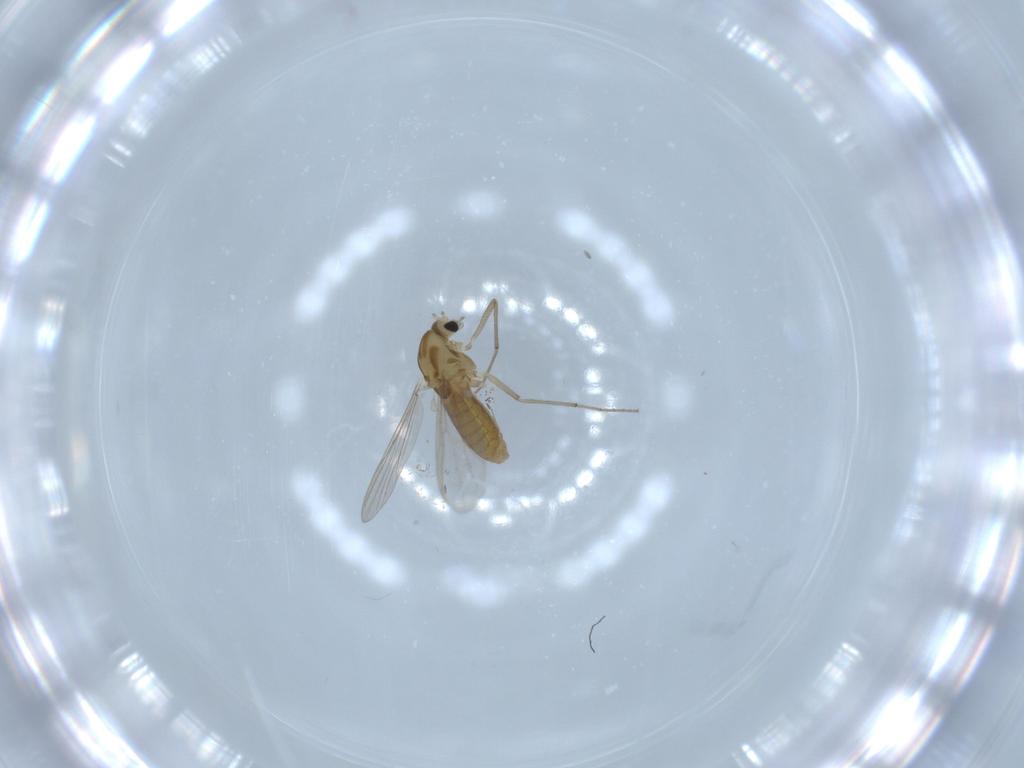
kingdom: Animalia
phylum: Arthropoda
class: Insecta
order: Diptera
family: Chironomidae
